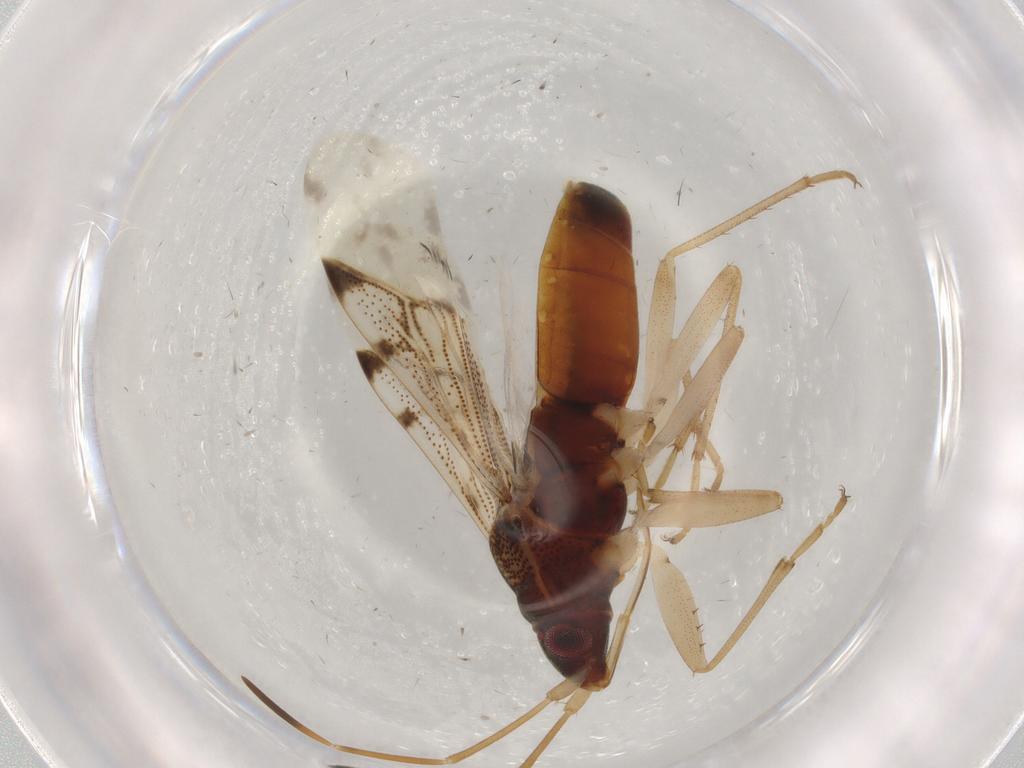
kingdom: Animalia
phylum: Arthropoda
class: Insecta
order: Hemiptera
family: Rhyparochromidae
